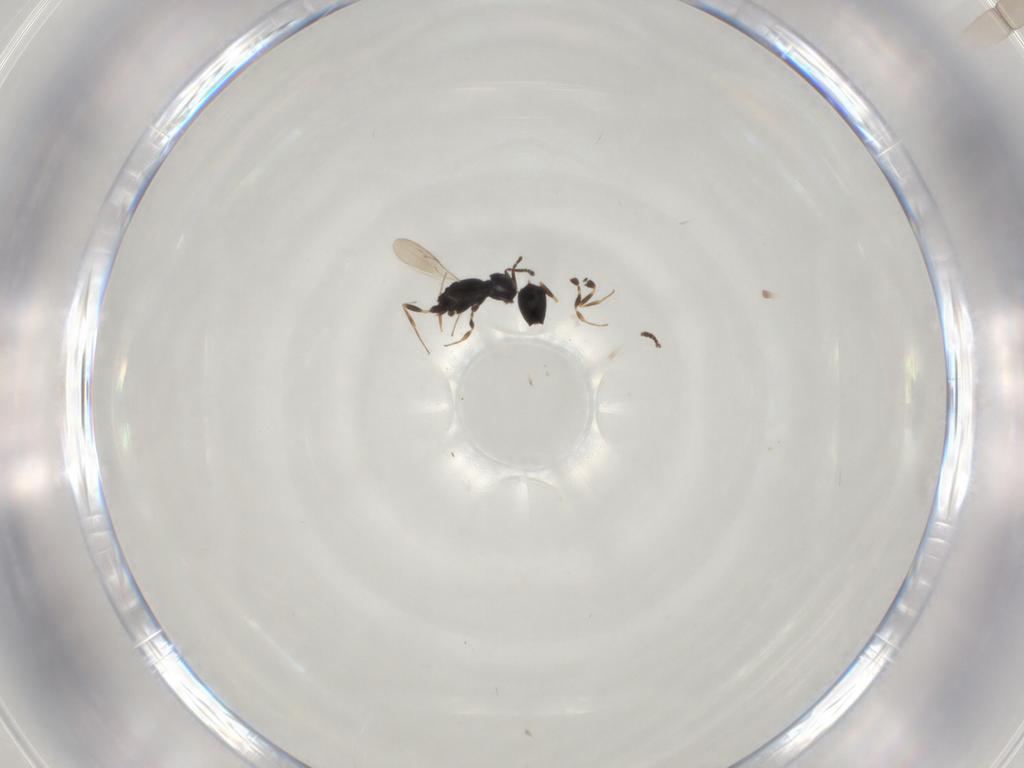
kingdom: Animalia
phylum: Arthropoda
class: Insecta
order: Hymenoptera
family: Scelionidae
